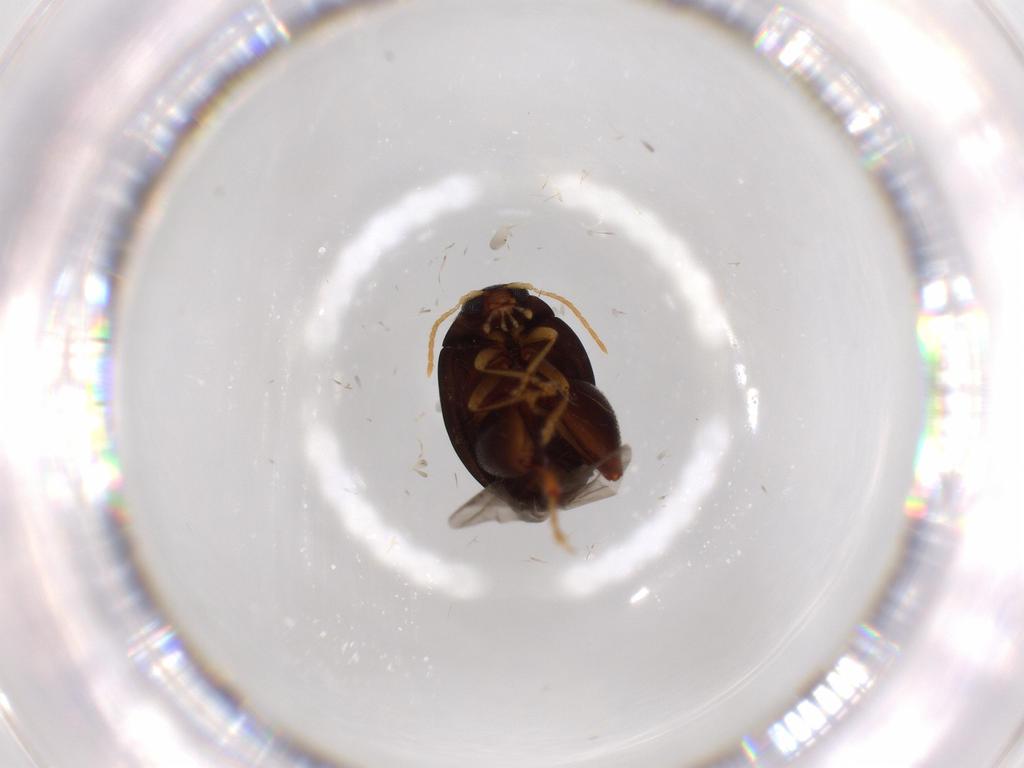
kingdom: Animalia
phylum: Arthropoda
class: Insecta
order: Coleoptera
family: Chrysomelidae
